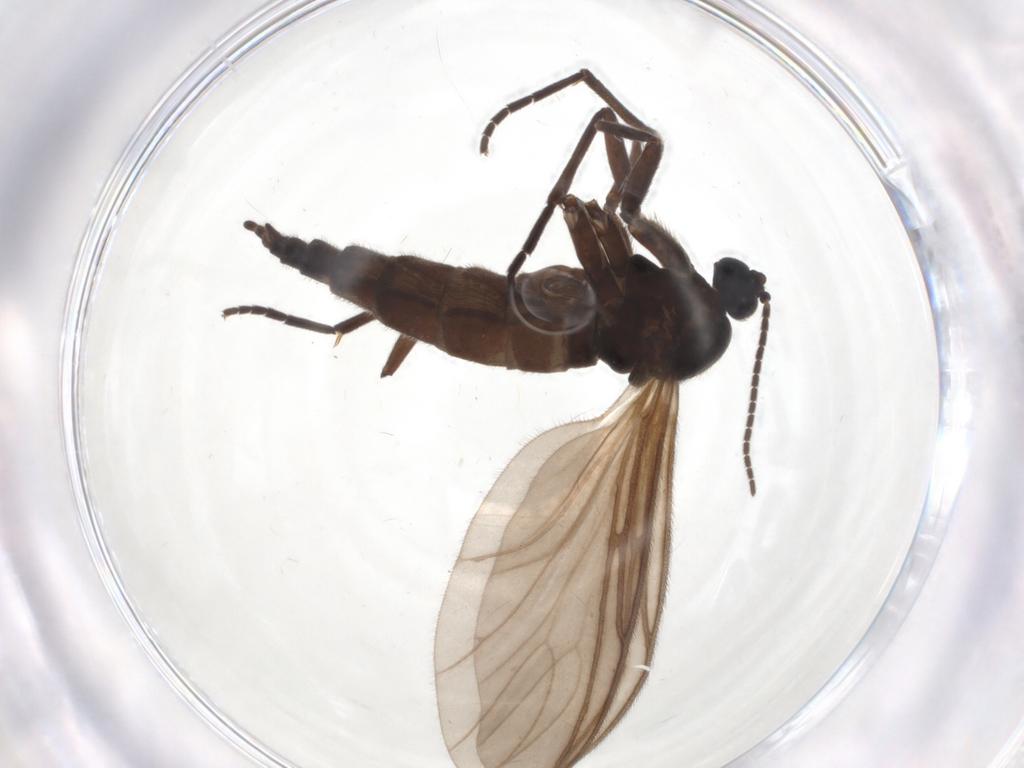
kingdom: Animalia
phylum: Arthropoda
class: Insecta
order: Diptera
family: Sciaridae
